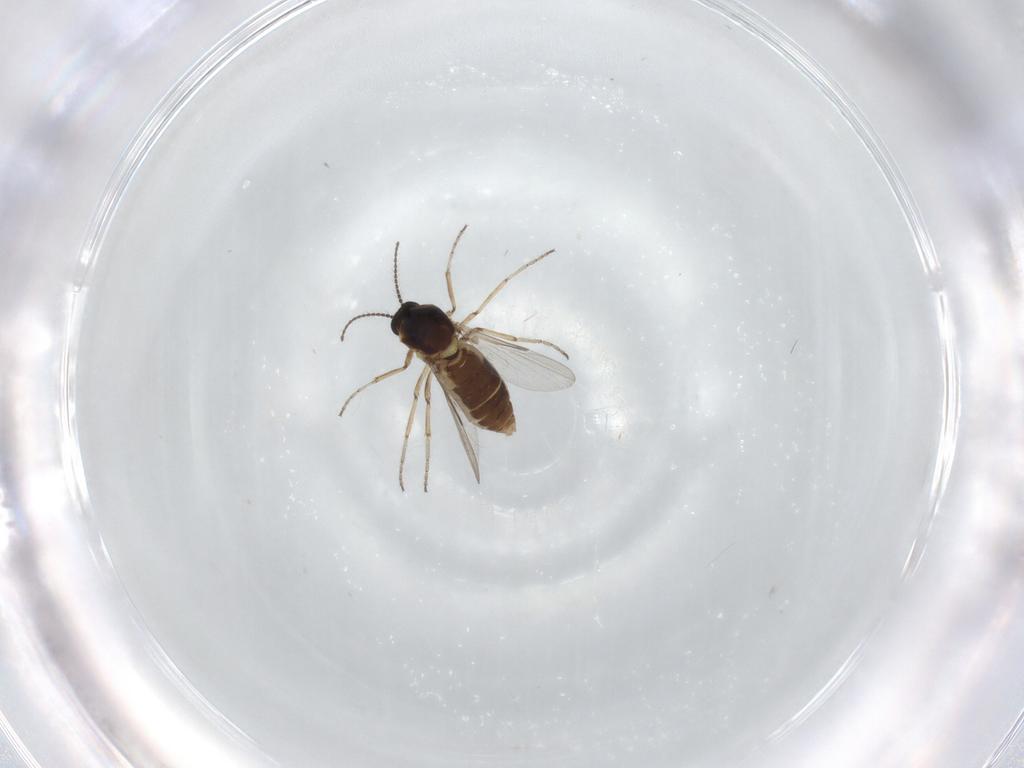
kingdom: Animalia
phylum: Arthropoda
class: Insecta
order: Diptera
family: Ceratopogonidae
